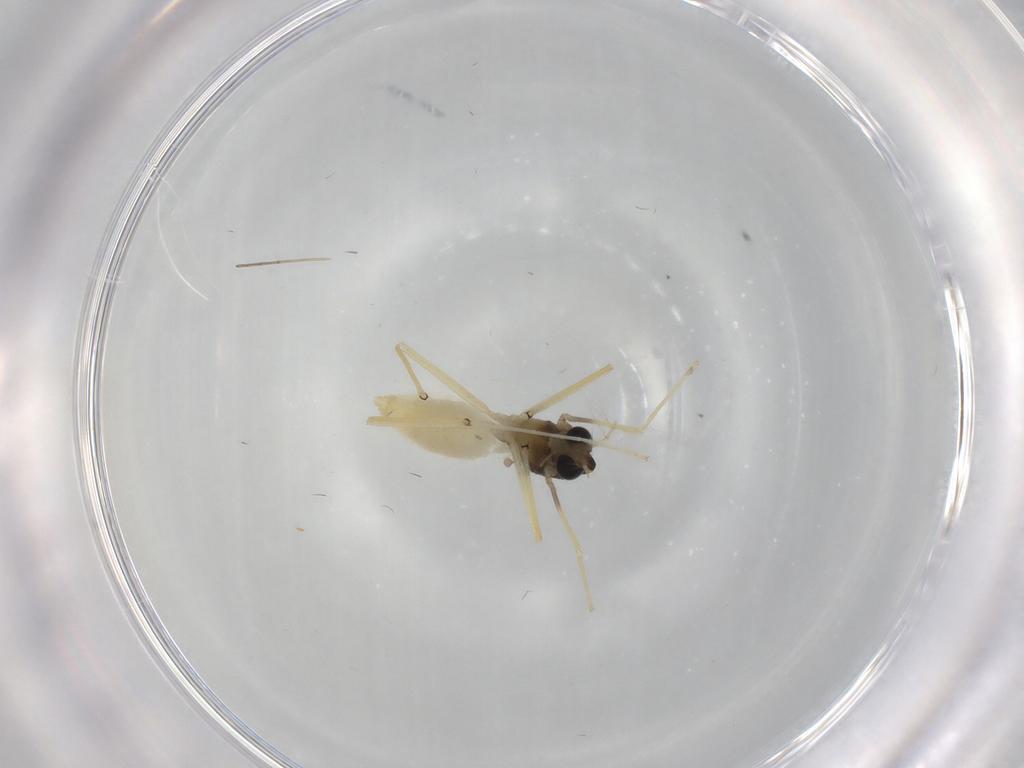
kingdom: Animalia
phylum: Arthropoda
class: Insecta
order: Diptera
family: Chironomidae
